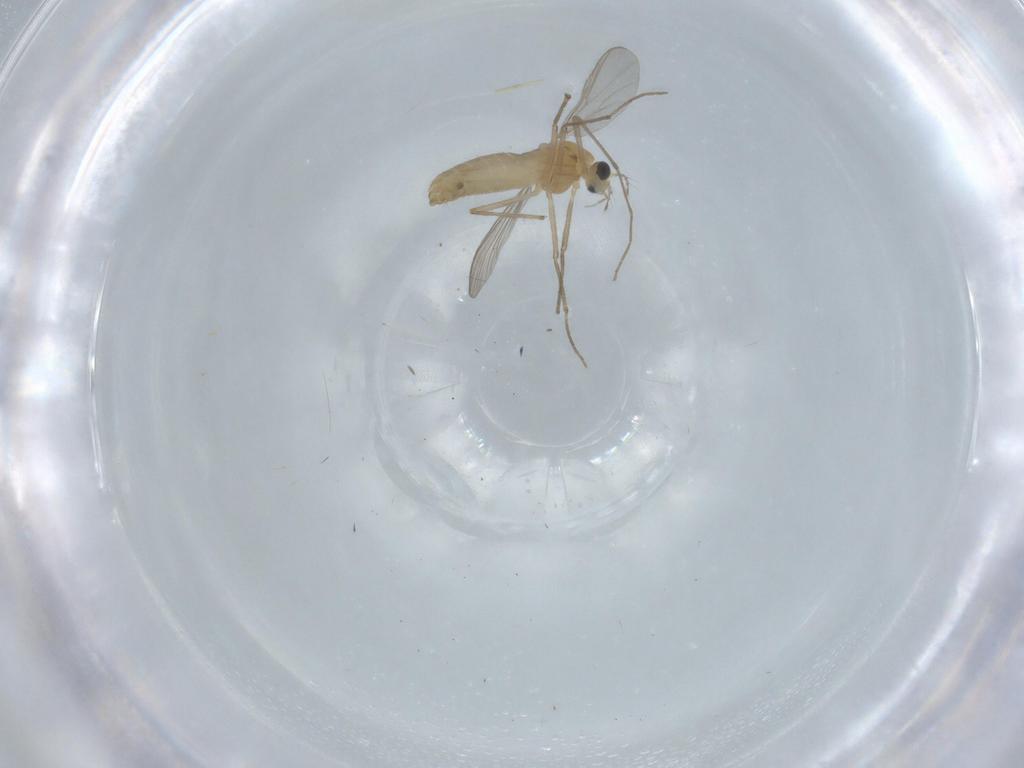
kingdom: Animalia
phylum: Arthropoda
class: Insecta
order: Diptera
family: Chironomidae
